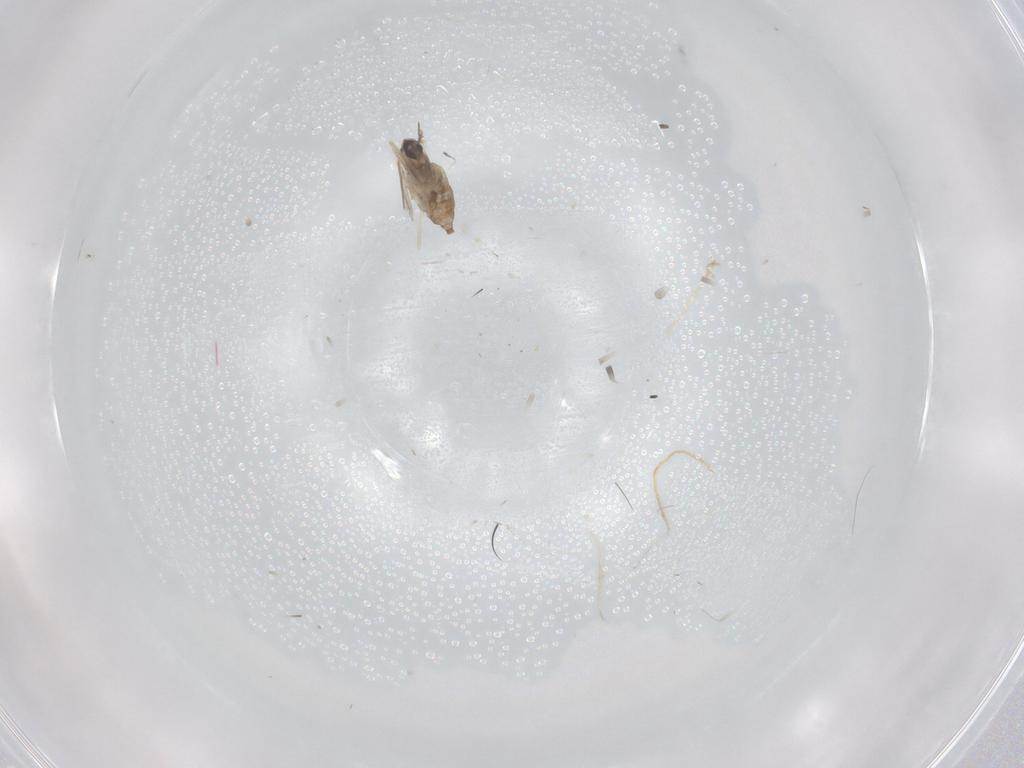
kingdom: Animalia
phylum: Arthropoda
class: Insecta
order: Diptera
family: Cecidomyiidae
